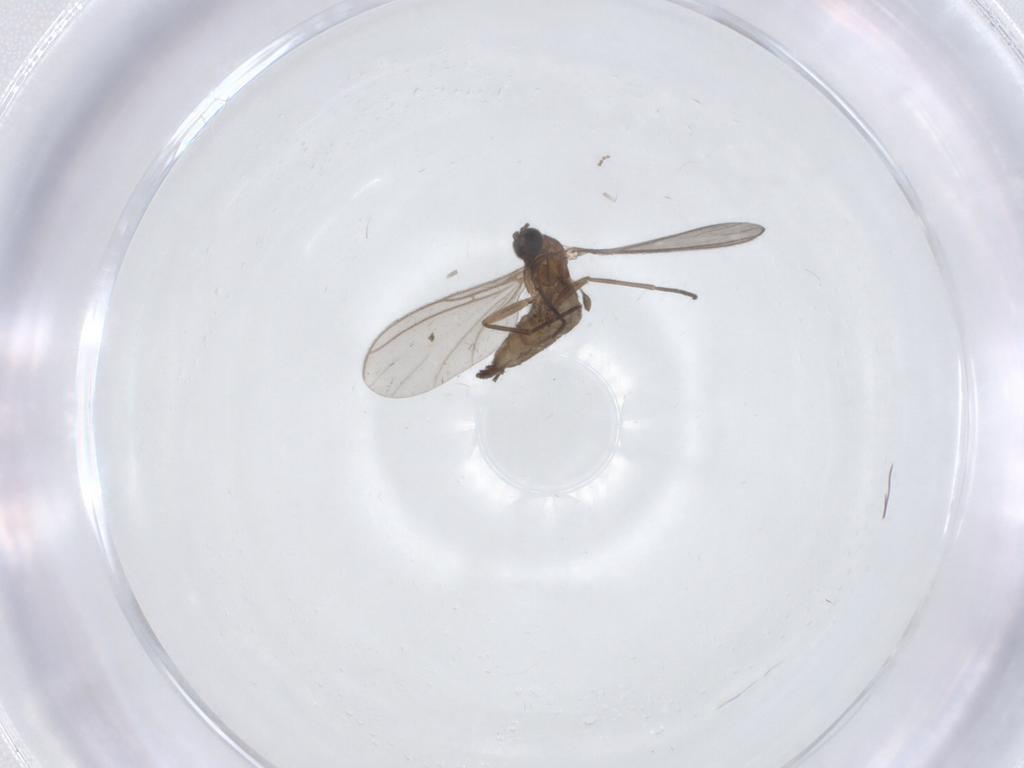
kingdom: Animalia
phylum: Arthropoda
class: Insecta
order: Diptera
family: Sciaridae
